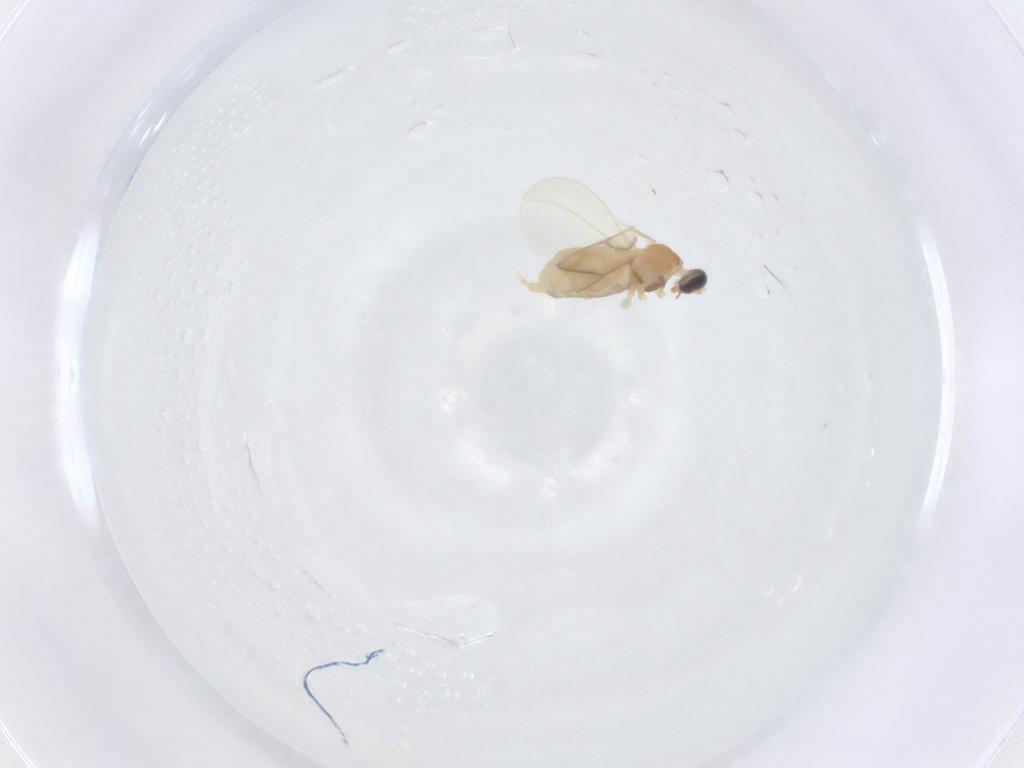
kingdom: Animalia
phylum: Arthropoda
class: Insecta
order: Diptera
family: Cecidomyiidae
